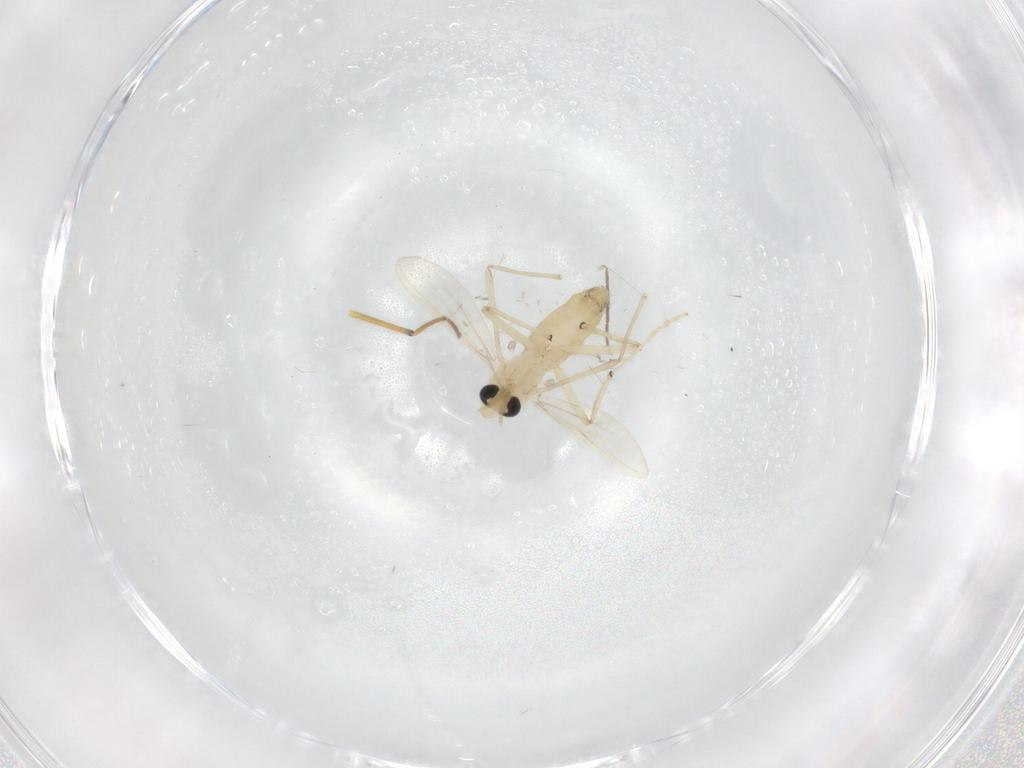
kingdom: Animalia
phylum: Arthropoda
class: Insecta
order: Diptera
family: Chironomidae
